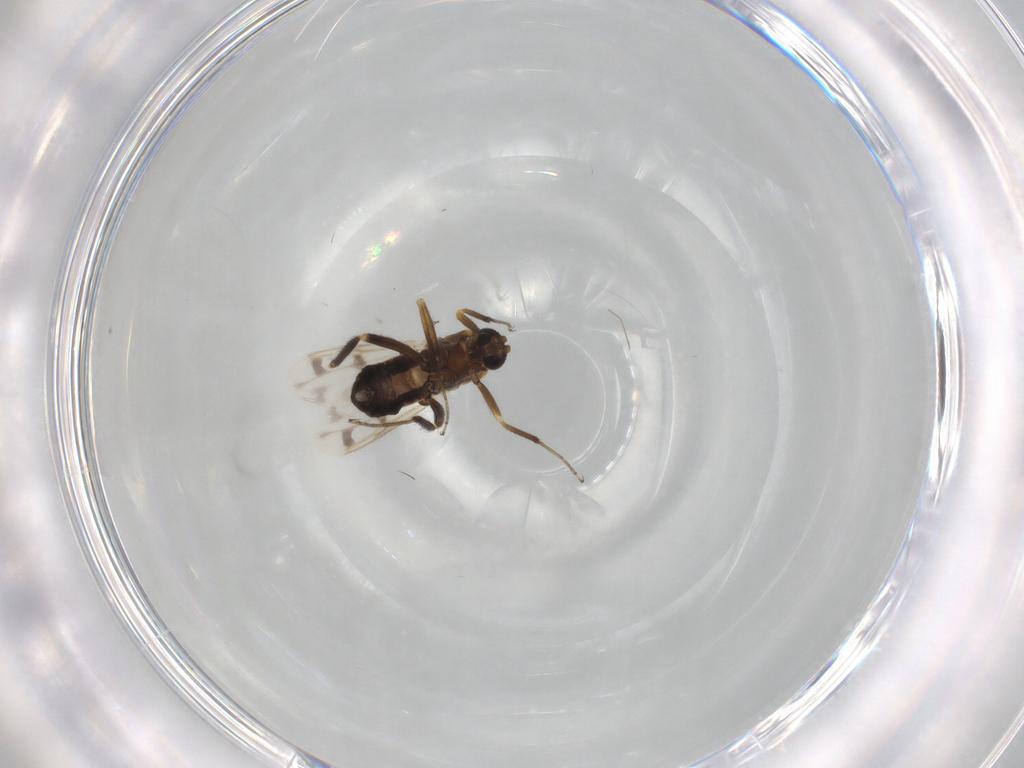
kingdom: Animalia
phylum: Arthropoda
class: Insecta
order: Diptera
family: Ceratopogonidae
